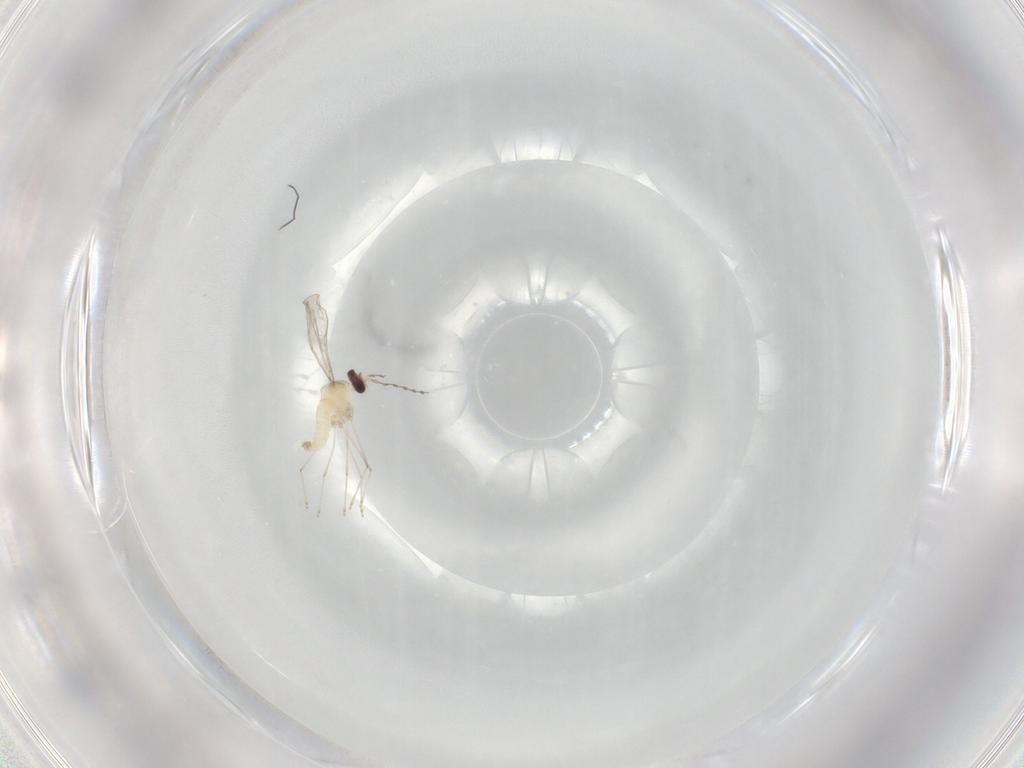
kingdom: Animalia
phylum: Arthropoda
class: Insecta
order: Diptera
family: Cecidomyiidae
